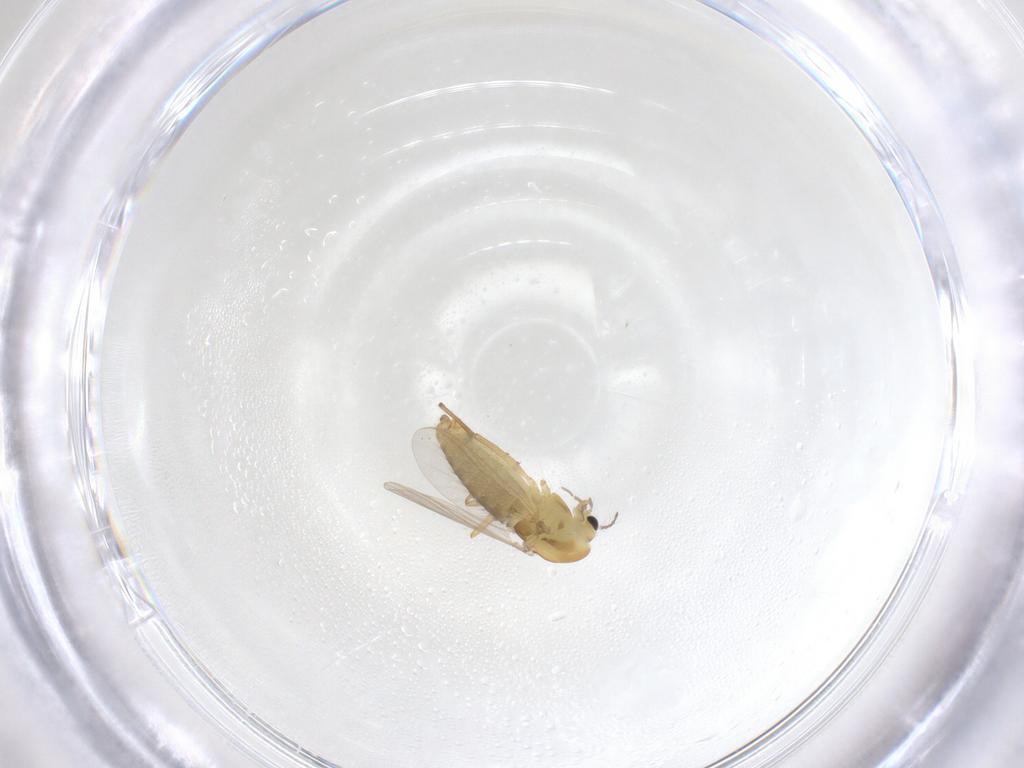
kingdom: Animalia
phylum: Arthropoda
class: Insecta
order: Diptera
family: Chironomidae
